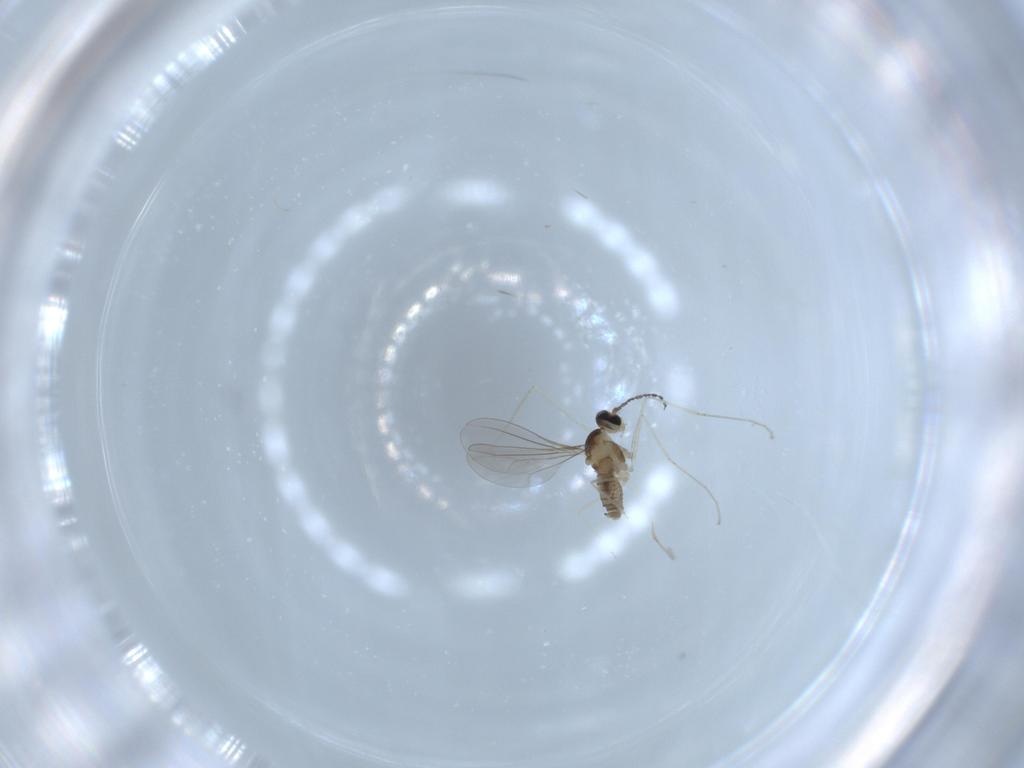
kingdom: Animalia
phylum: Arthropoda
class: Insecta
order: Diptera
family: Cecidomyiidae
